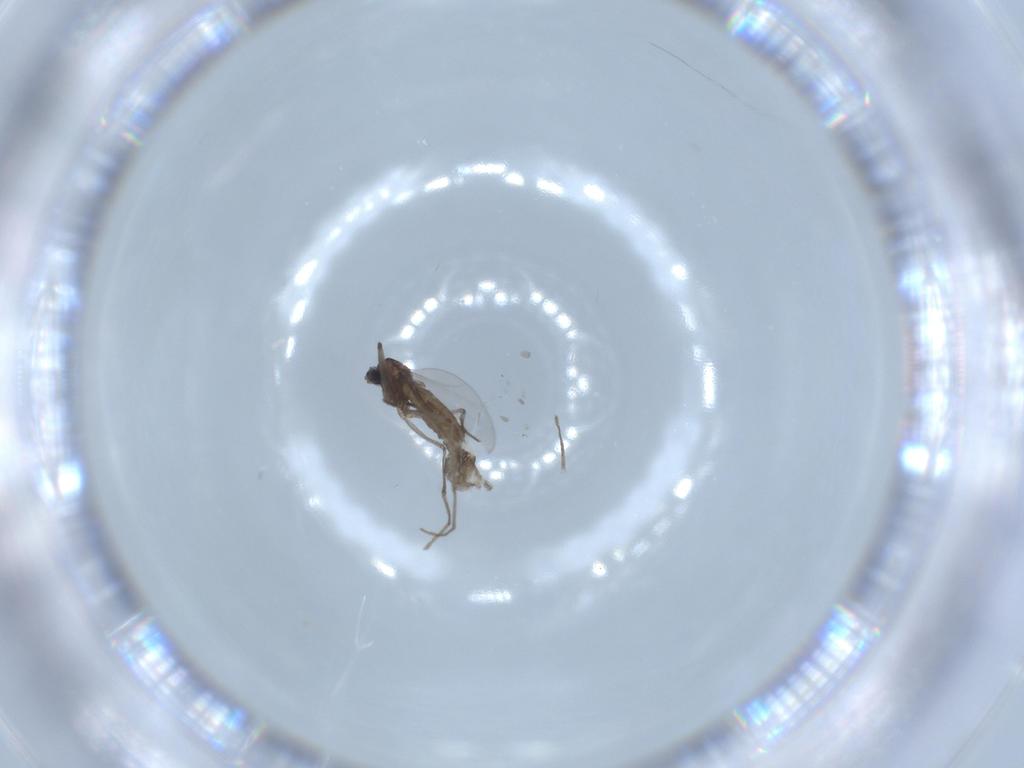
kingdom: Animalia
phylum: Arthropoda
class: Insecta
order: Diptera
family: Cecidomyiidae
